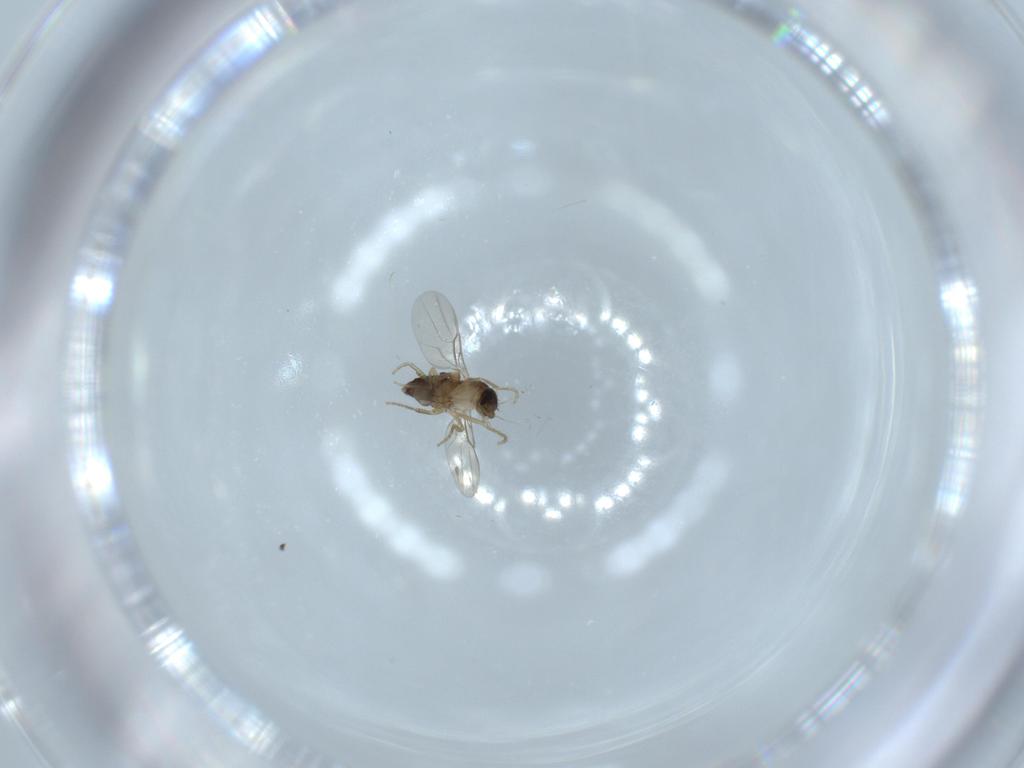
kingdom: Animalia
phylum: Arthropoda
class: Insecta
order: Diptera
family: Phoridae
